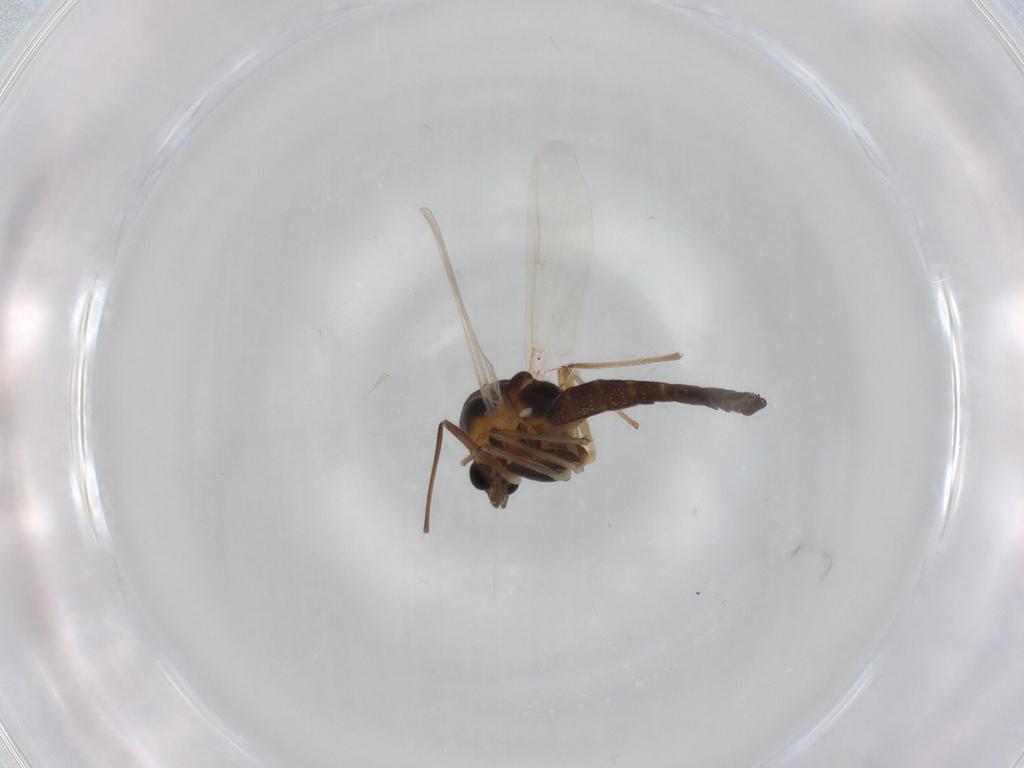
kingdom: Animalia
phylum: Arthropoda
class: Insecta
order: Diptera
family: Chironomidae
